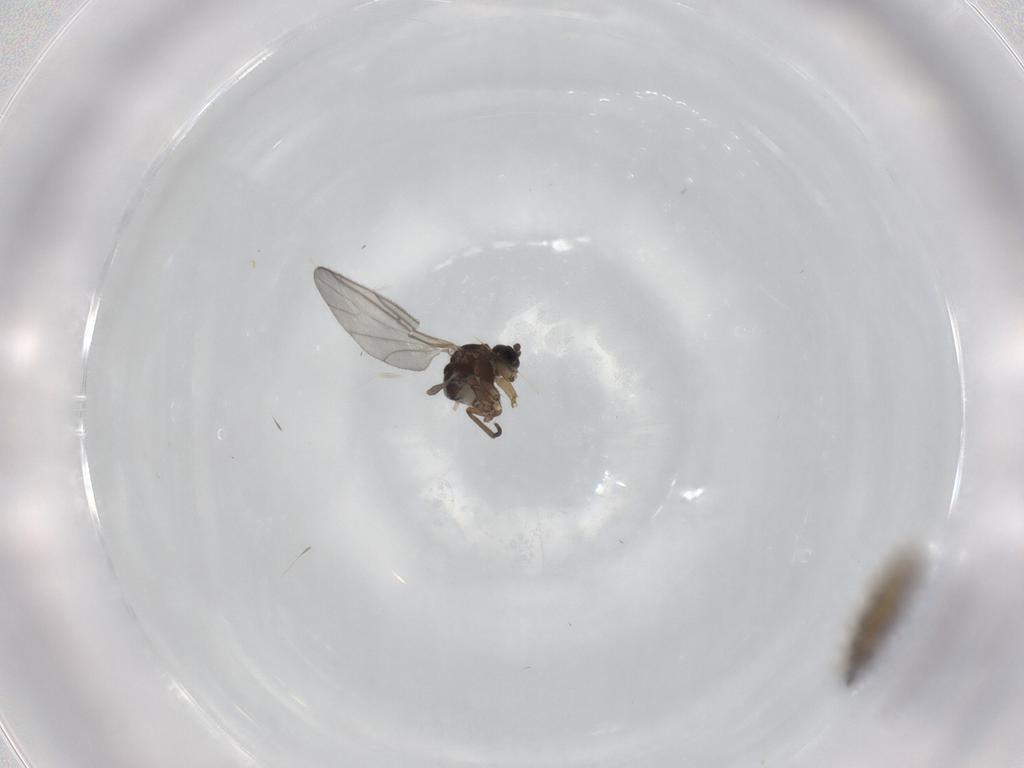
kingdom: Animalia
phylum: Arthropoda
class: Insecta
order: Diptera
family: Sciaridae
